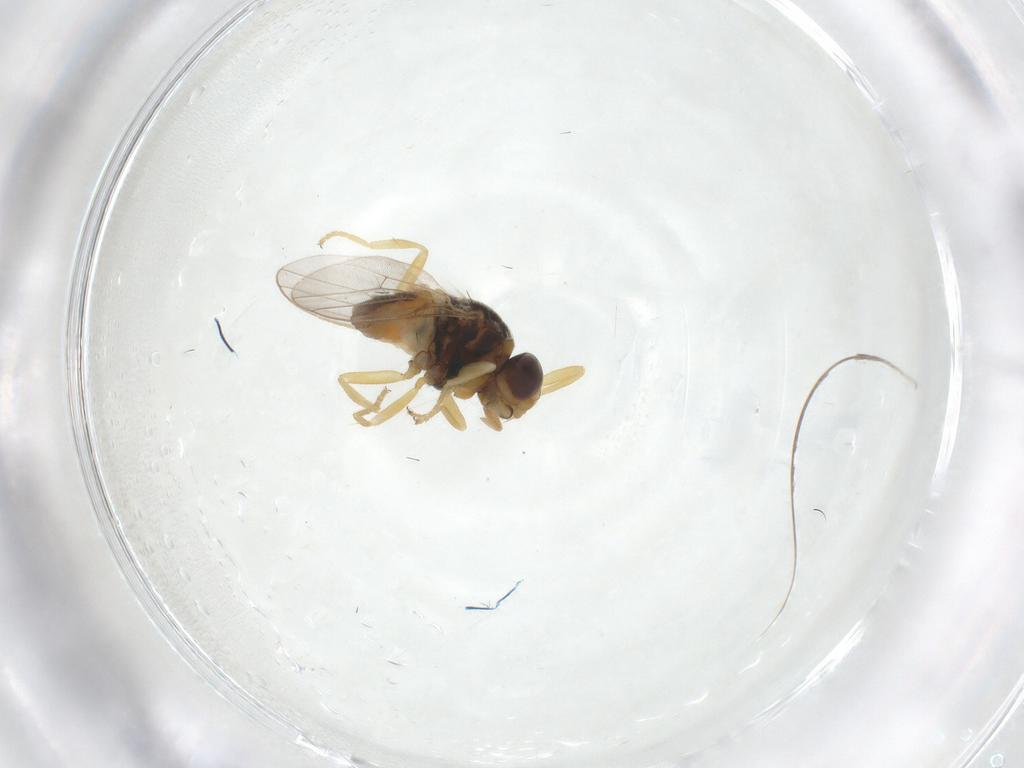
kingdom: Animalia
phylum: Arthropoda
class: Insecta
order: Diptera
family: Chloropidae
